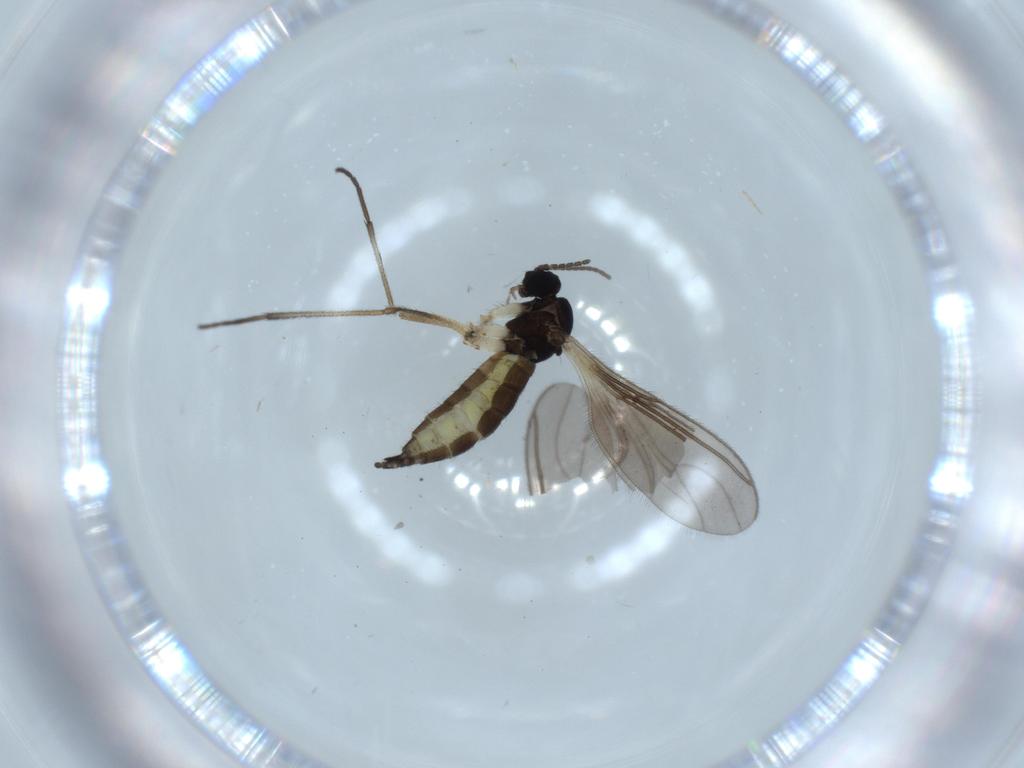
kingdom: Animalia
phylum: Arthropoda
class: Insecta
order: Diptera
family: Sciaridae
